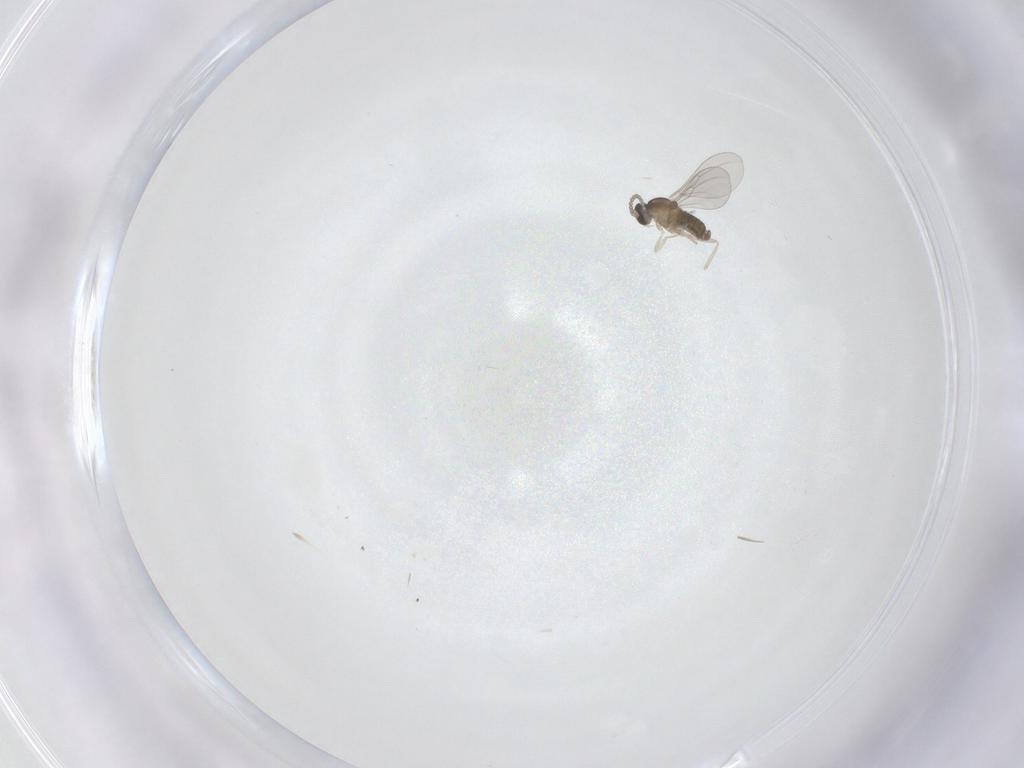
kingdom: Animalia
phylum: Arthropoda
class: Insecta
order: Diptera
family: Cecidomyiidae
